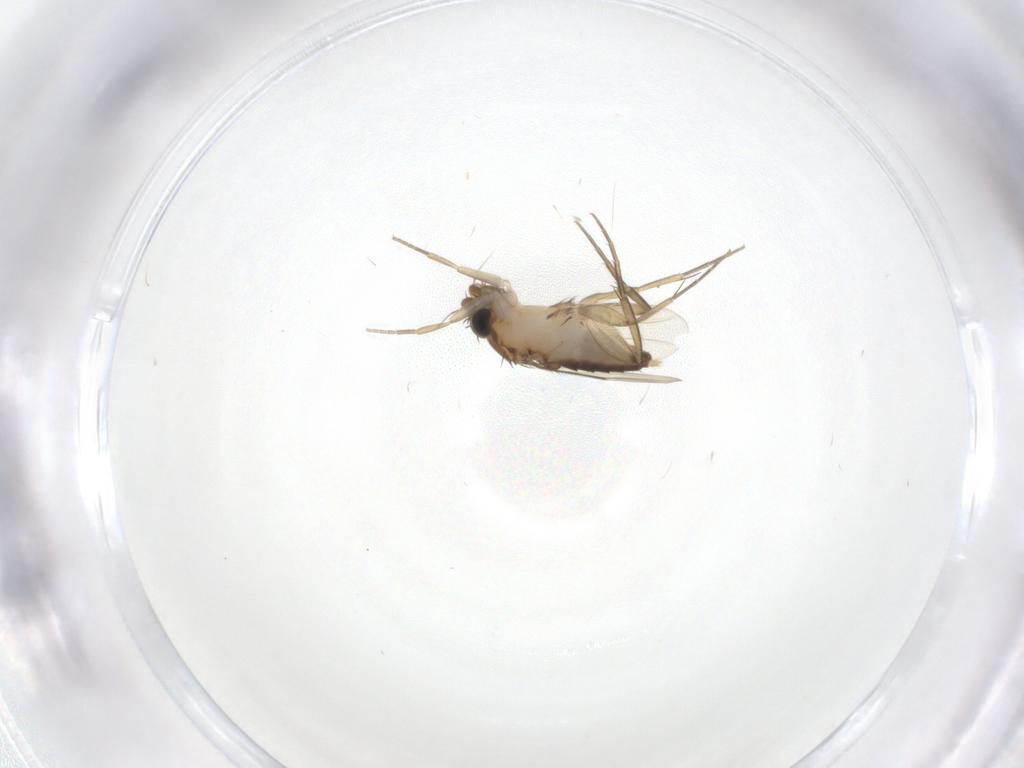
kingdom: Animalia
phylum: Arthropoda
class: Insecta
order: Diptera
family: Phoridae
